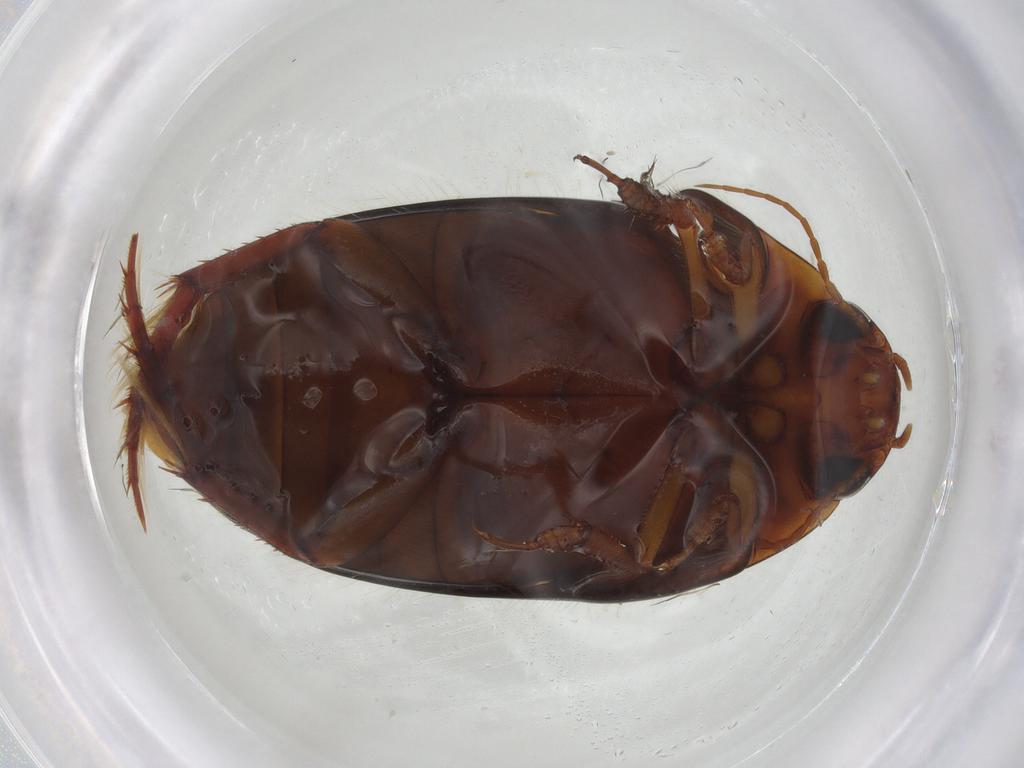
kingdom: Animalia
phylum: Arthropoda
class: Insecta
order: Coleoptera
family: Dytiscidae
